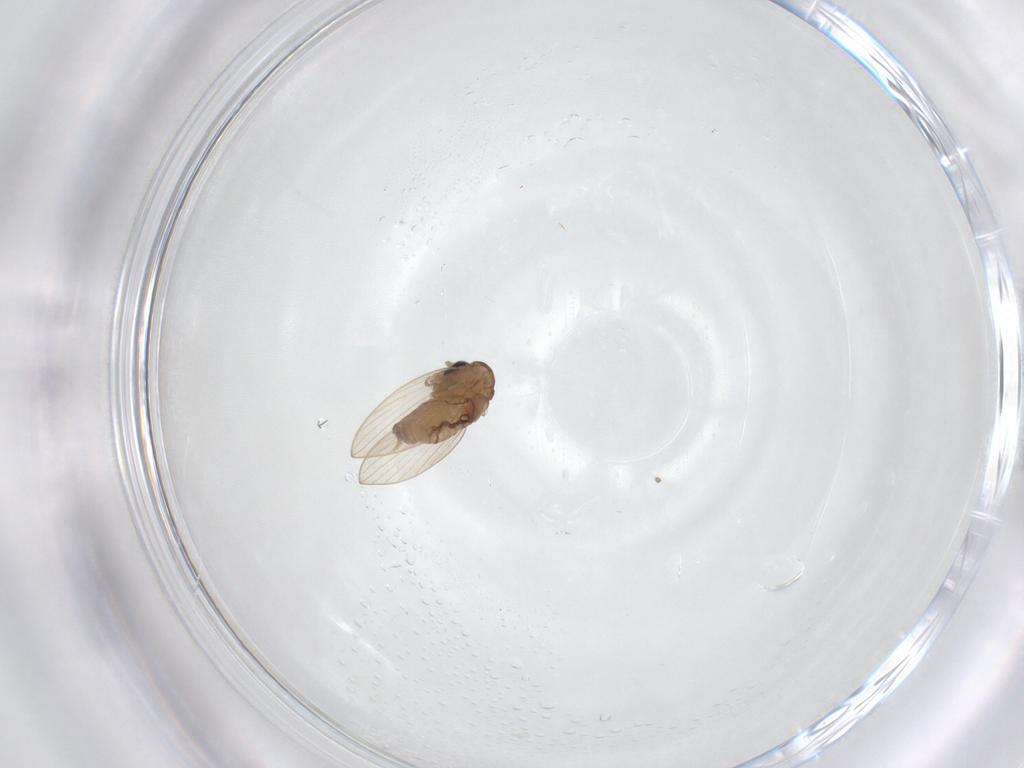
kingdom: Animalia
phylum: Arthropoda
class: Insecta
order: Diptera
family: Psychodidae
